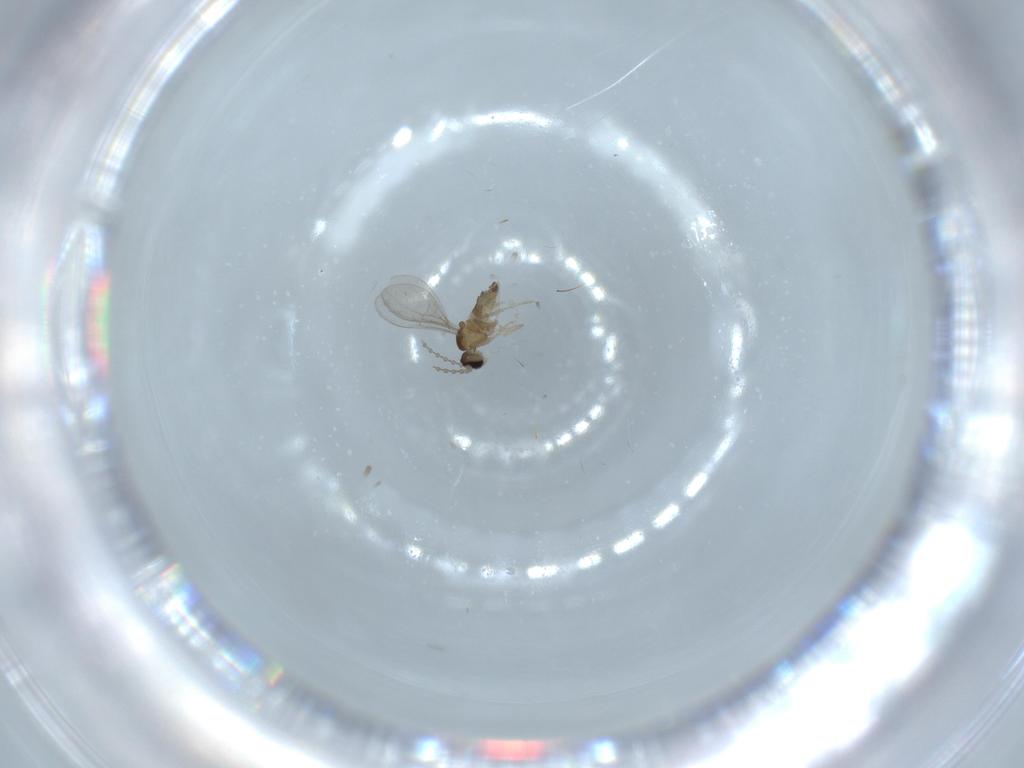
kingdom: Animalia
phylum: Arthropoda
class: Insecta
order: Diptera
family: Cecidomyiidae
